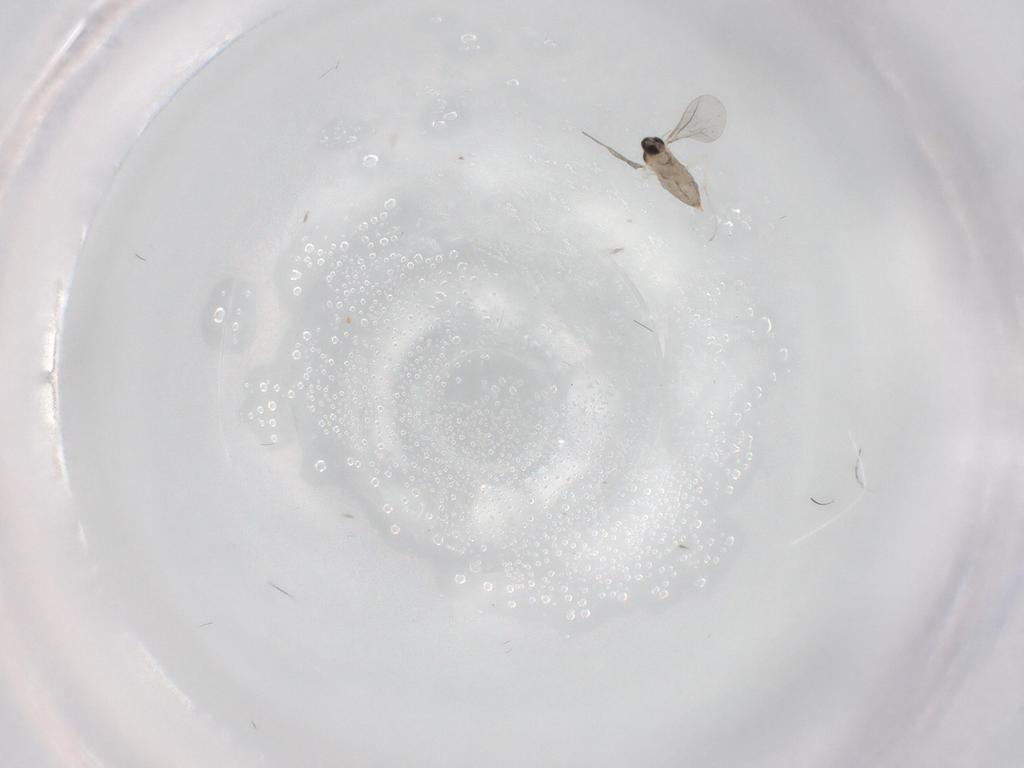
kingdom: Animalia
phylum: Arthropoda
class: Insecta
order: Diptera
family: Cecidomyiidae
